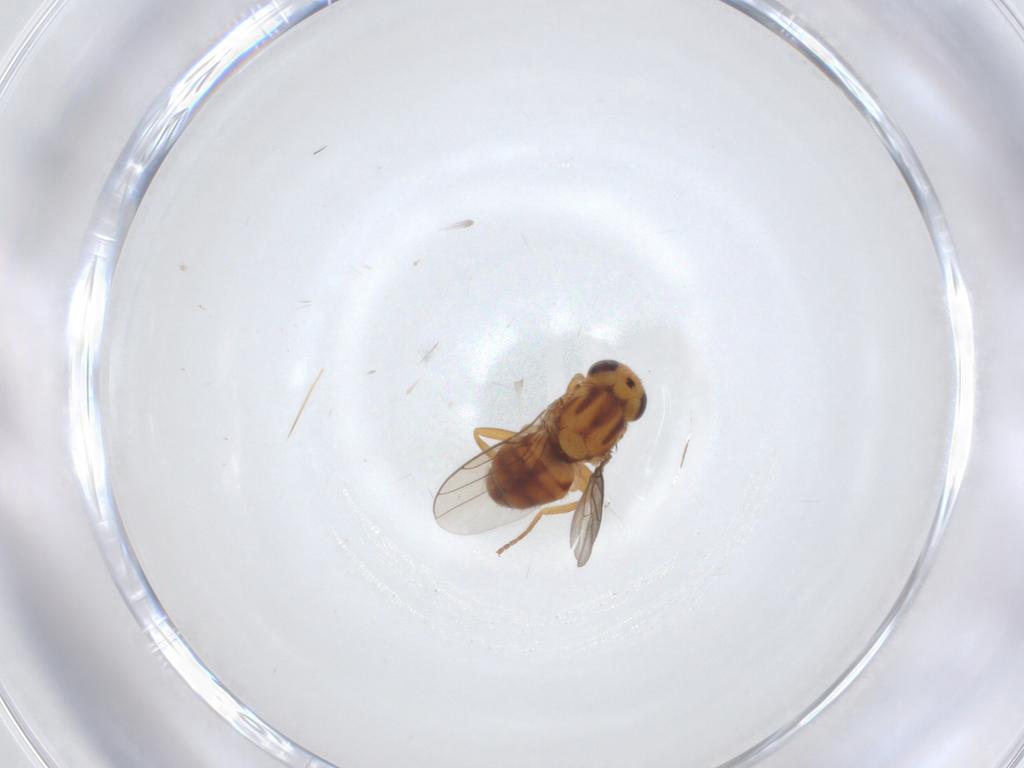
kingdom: Animalia
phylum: Arthropoda
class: Insecta
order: Diptera
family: Chloropidae
